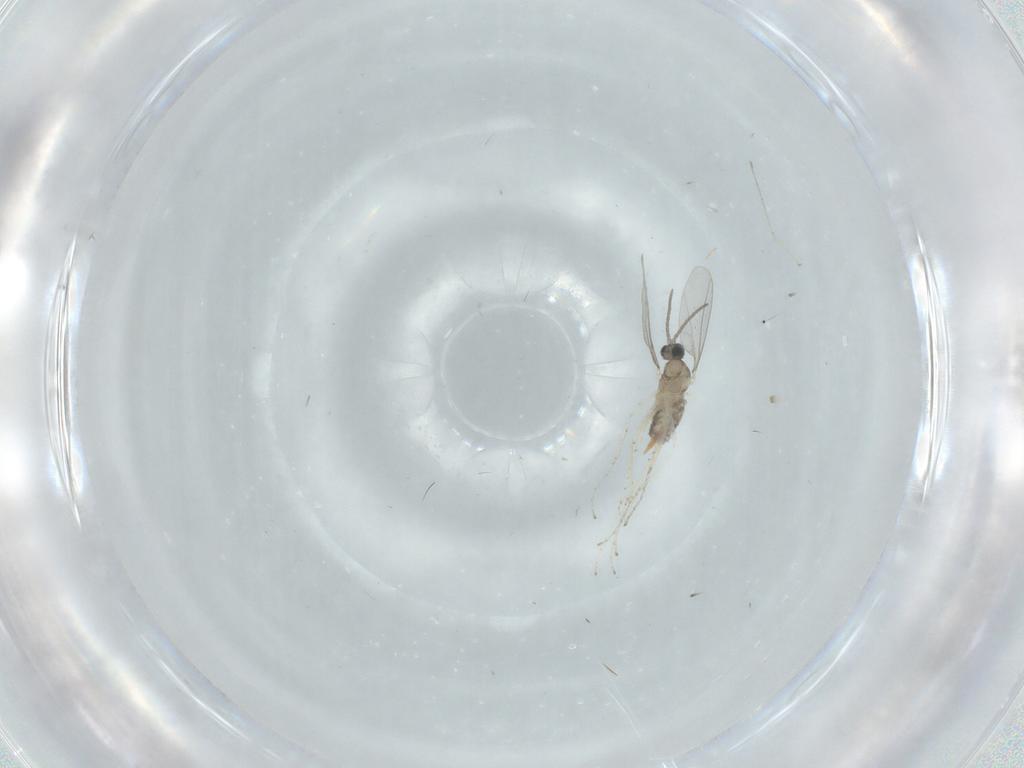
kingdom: Animalia
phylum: Arthropoda
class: Insecta
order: Diptera
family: Cecidomyiidae
